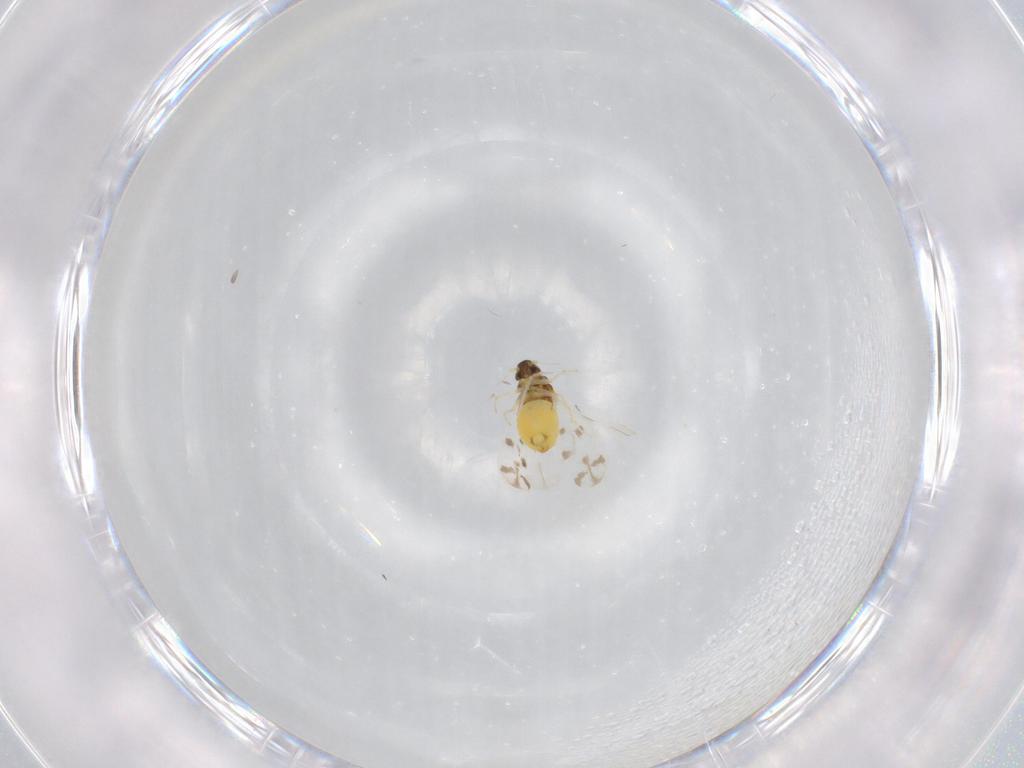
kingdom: Animalia
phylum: Arthropoda
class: Insecta
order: Hemiptera
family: Aleyrodidae
